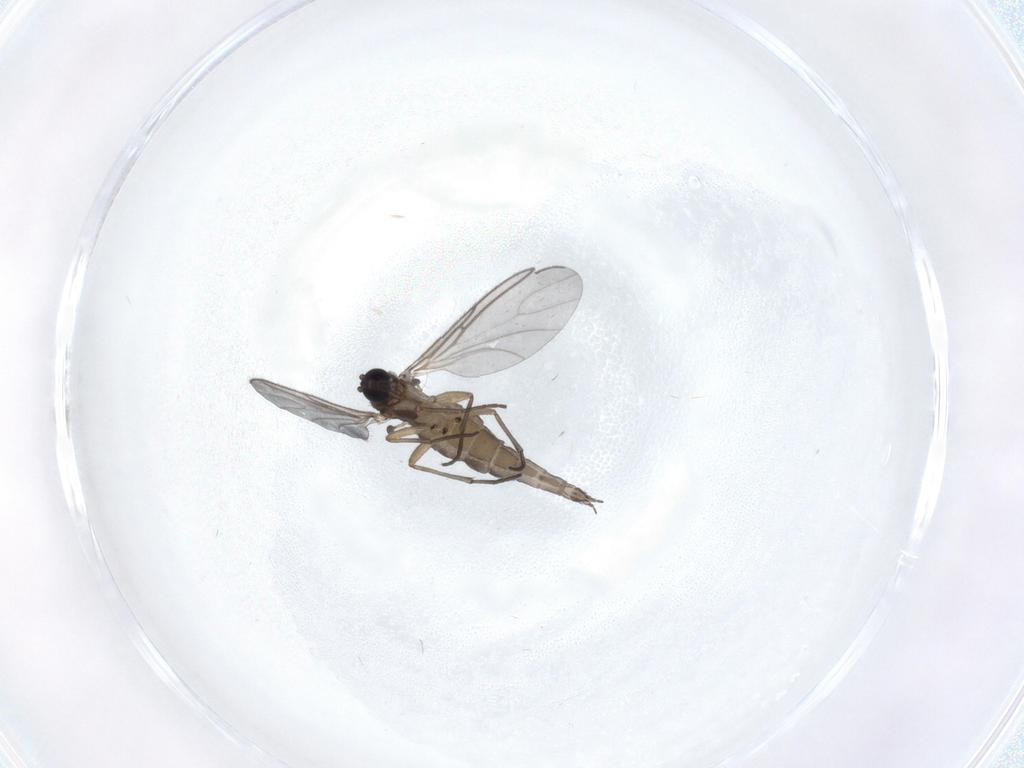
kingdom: Animalia
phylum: Arthropoda
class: Insecta
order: Diptera
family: Sciaridae
